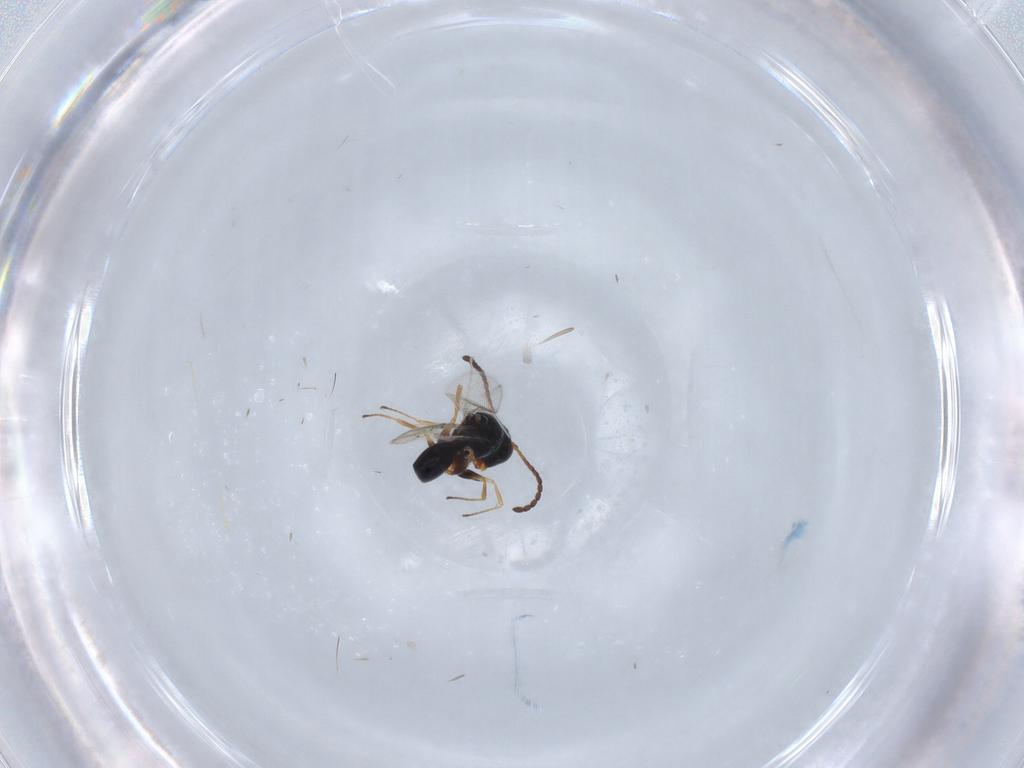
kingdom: Animalia
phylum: Arthropoda
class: Insecta
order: Hymenoptera
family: Figitidae
